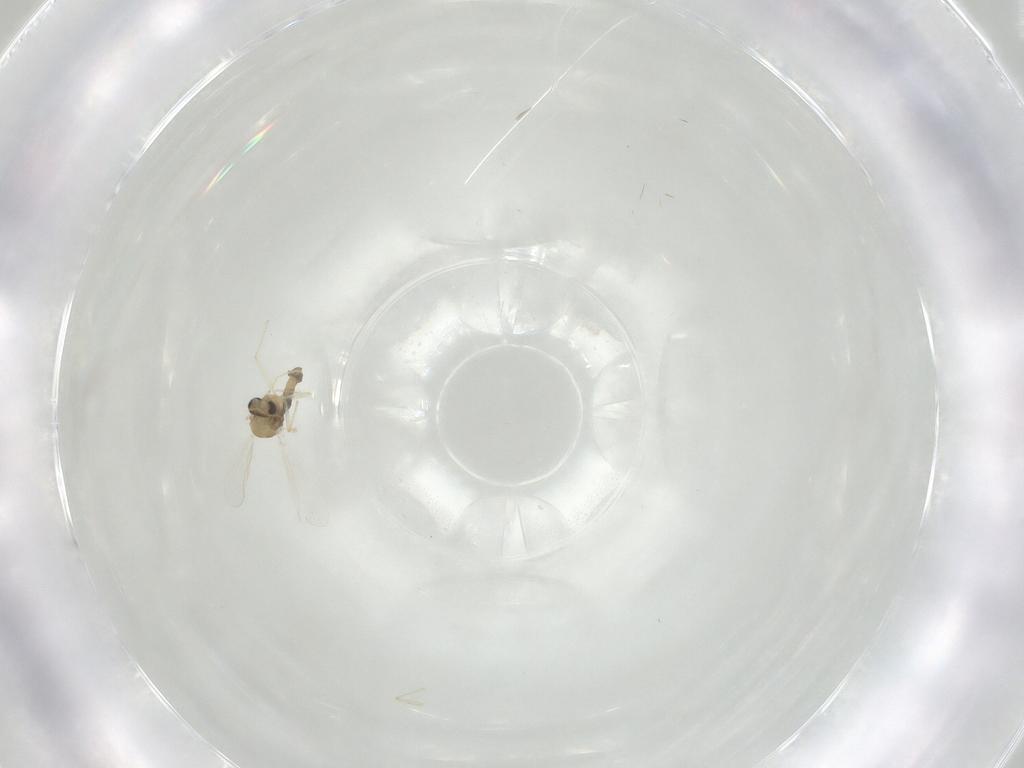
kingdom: Animalia
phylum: Arthropoda
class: Insecta
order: Diptera
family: Chironomidae
